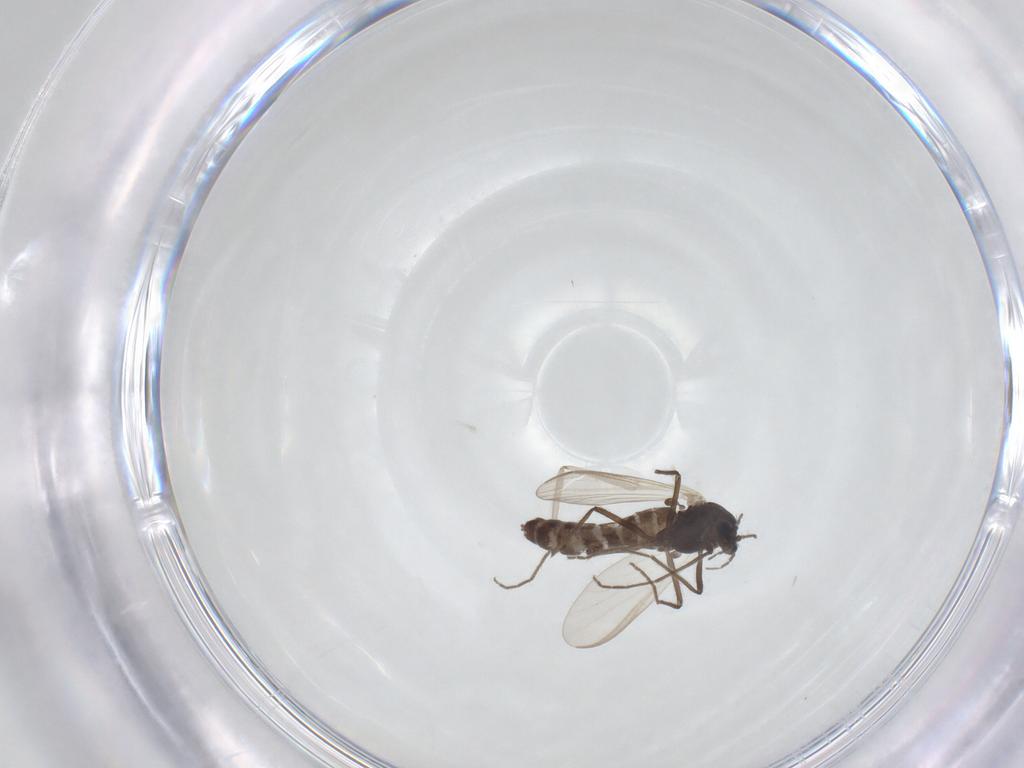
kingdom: Animalia
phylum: Arthropoda
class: Insecta
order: Diptera
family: Cecidomyiidae
